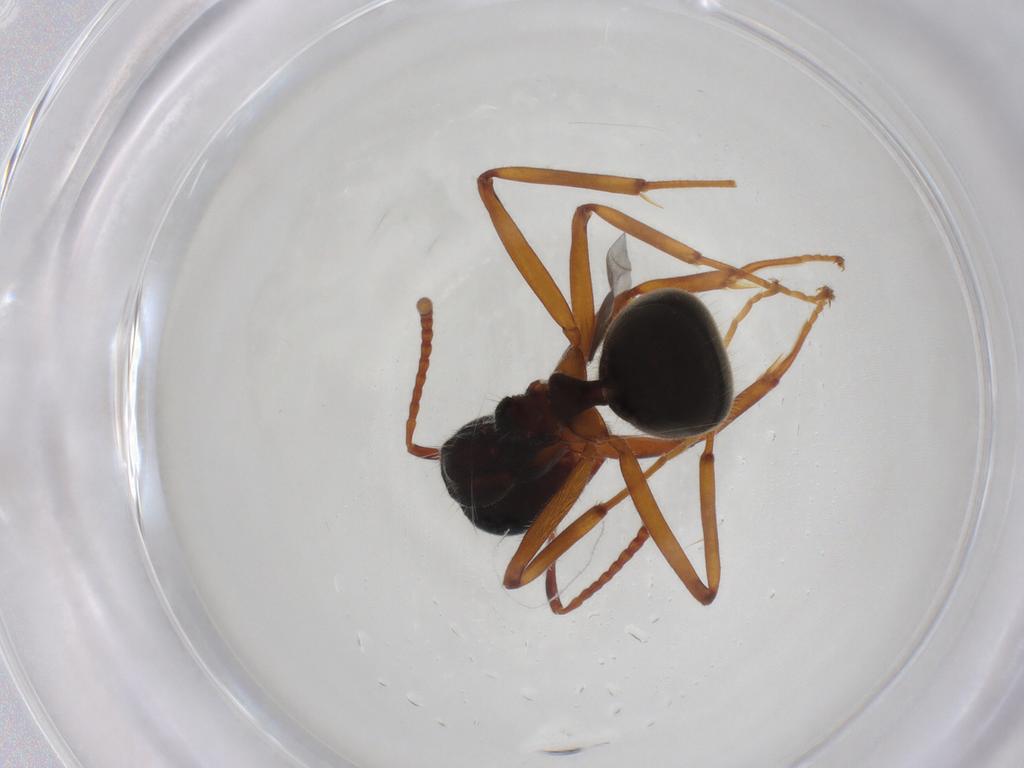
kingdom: Animalia
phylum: Arthropoda
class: Insecta
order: Hymenoptera
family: Formicidae
